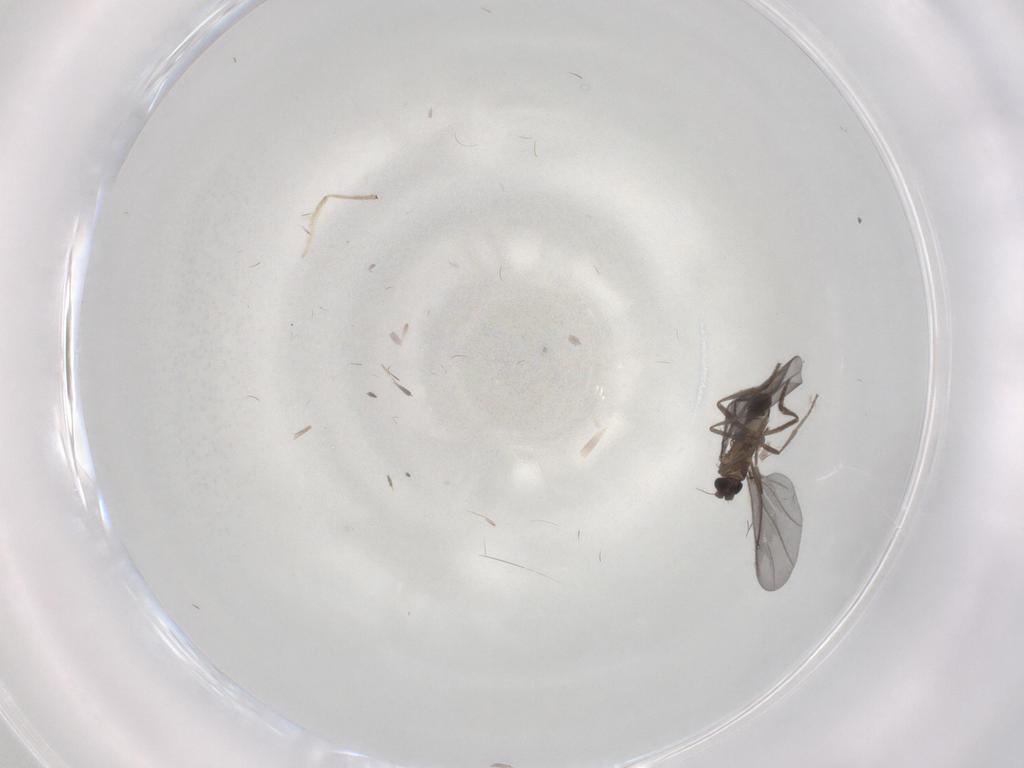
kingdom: Animalia
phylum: Arthropoda
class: Insecta
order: Diptera
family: Phoridae
